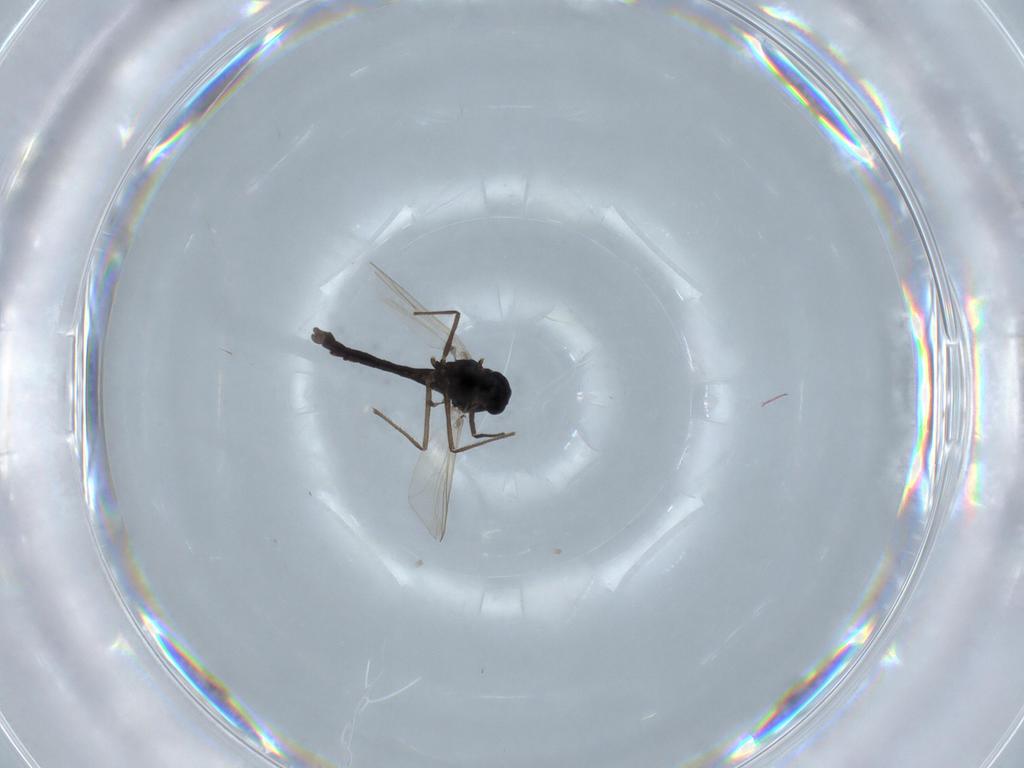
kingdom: Animalia
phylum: Arthropoda
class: Insecta
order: Diptera
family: Chironomidae
